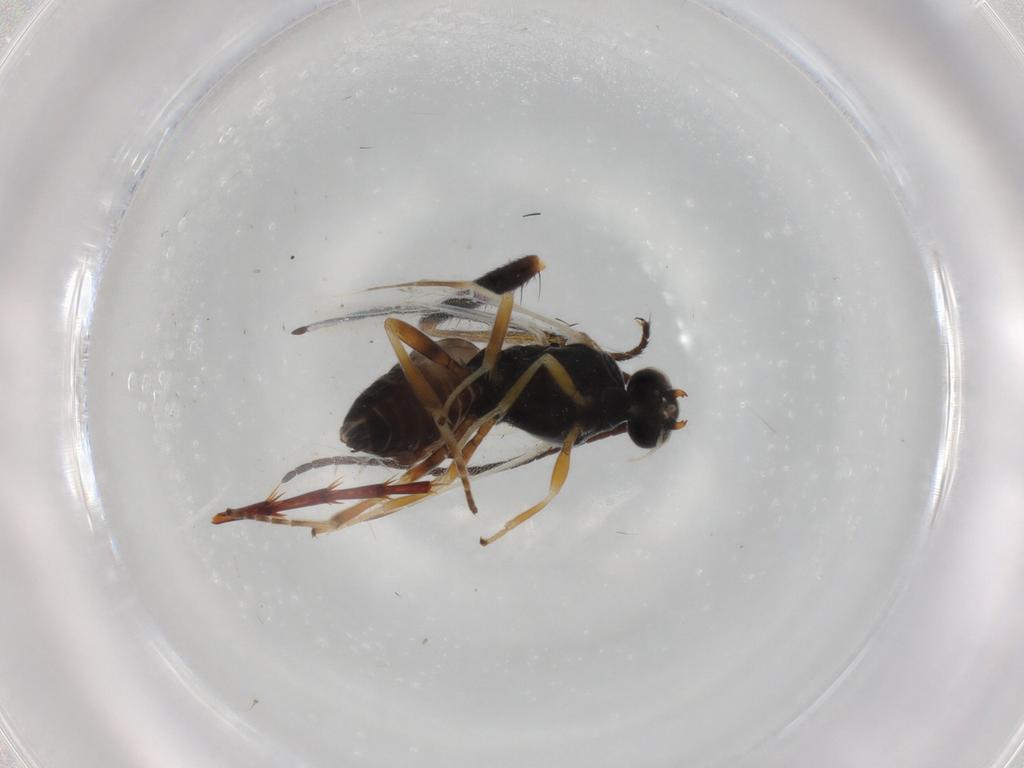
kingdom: Animalia
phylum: Arthropoda
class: Insecta
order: Hymenoptera
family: Braconidae
